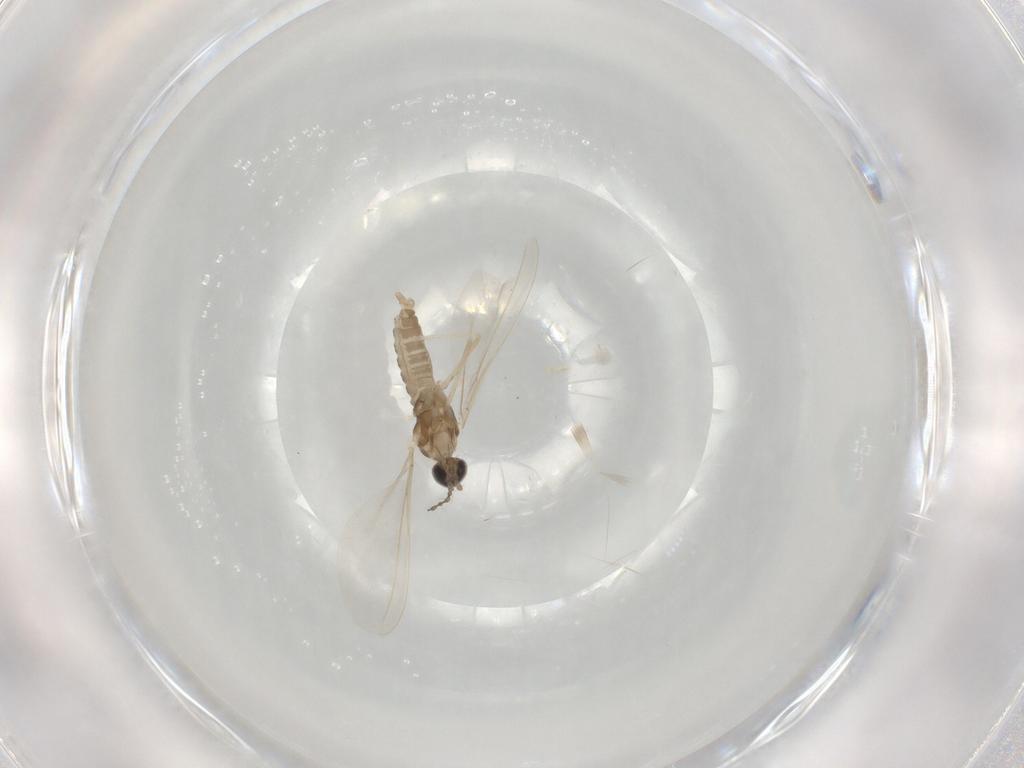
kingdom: Animalia
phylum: Arthropoda
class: Insecta
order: Diptera
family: Cecidomyiidae
